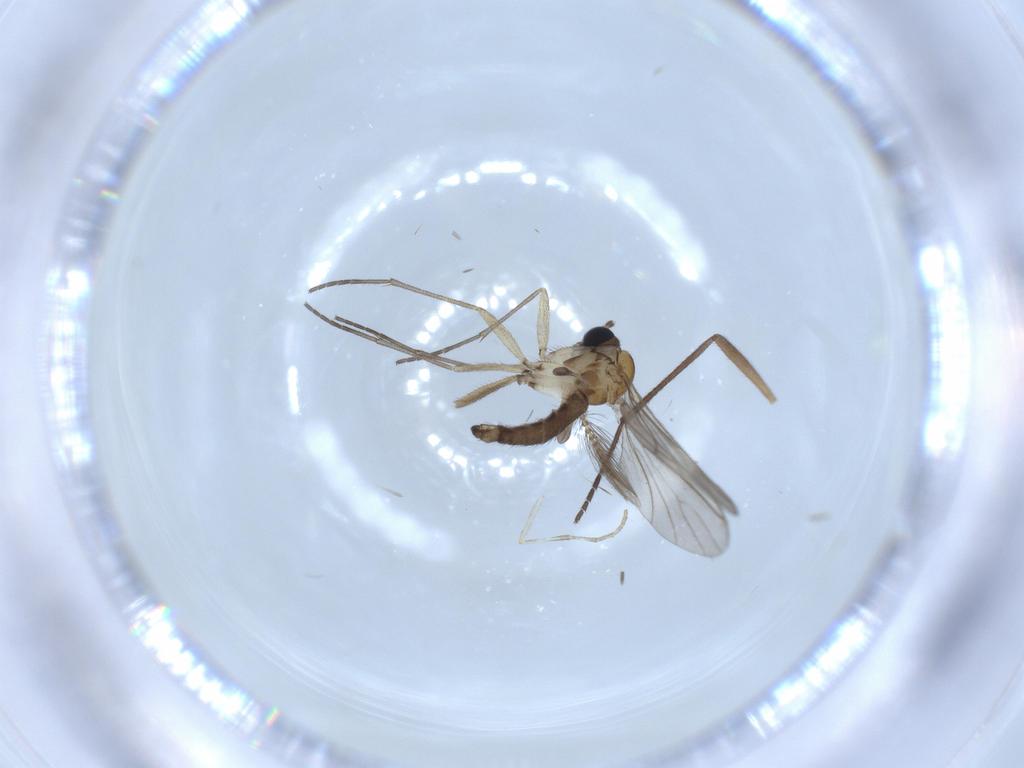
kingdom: Animalia
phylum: Arthropoda
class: Insecta
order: Diptera
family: Sciaridae
